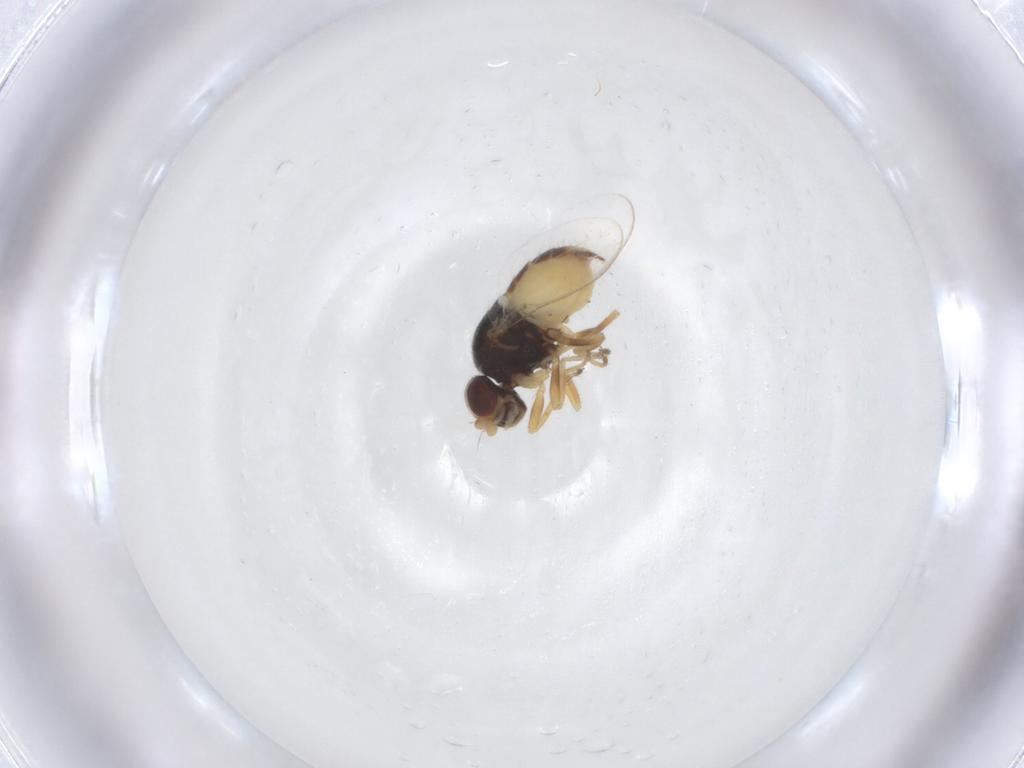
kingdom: Animalia
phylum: Arthropoda
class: Insecta
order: Diptera
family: Chloropidae
